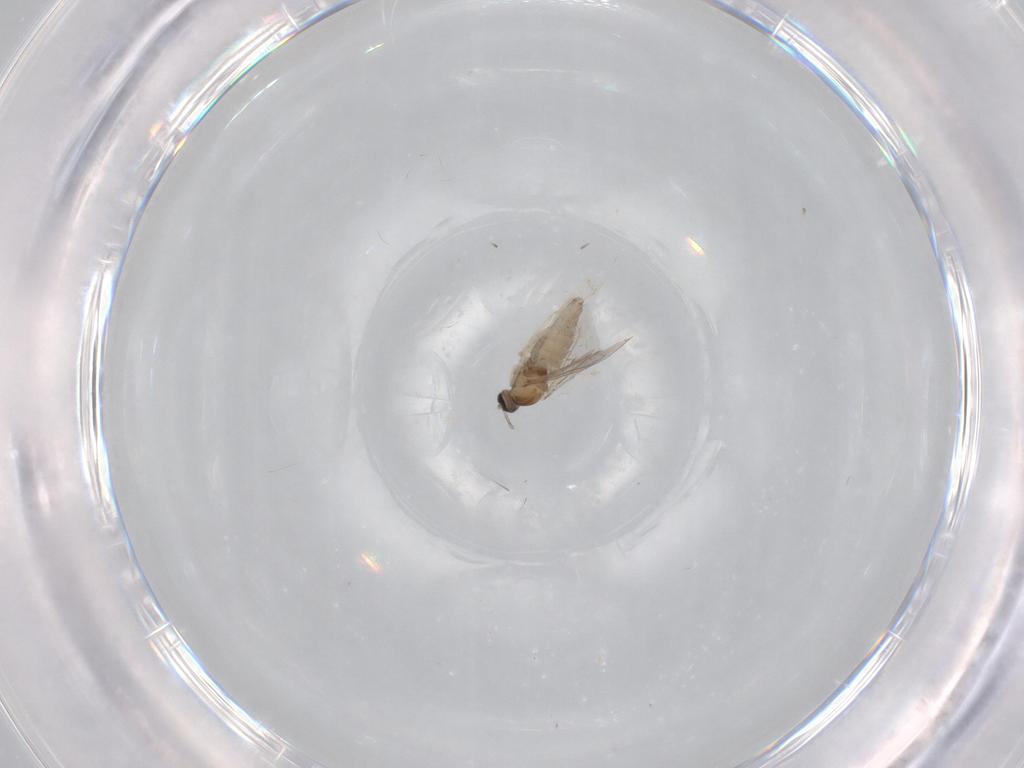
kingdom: Animalia
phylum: Arthropoda
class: Insecta
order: Diptera
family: Cecidomyiidae
